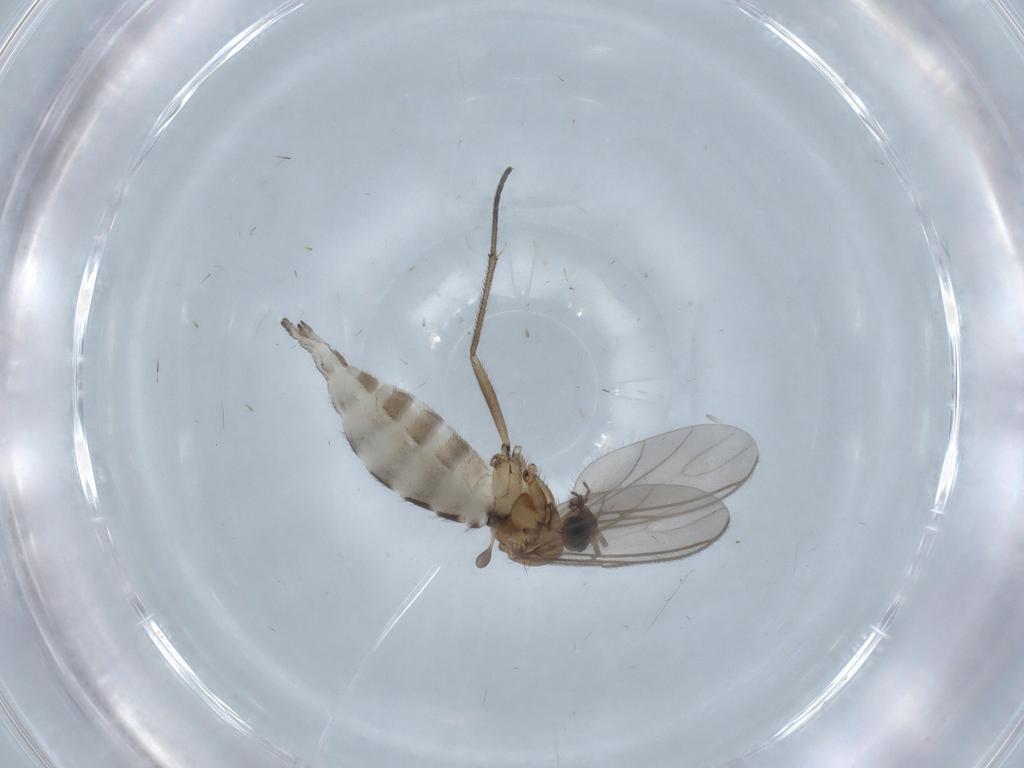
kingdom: Animalia
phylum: Arthropoda
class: Insecta
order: Diptera
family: Sciaridae
